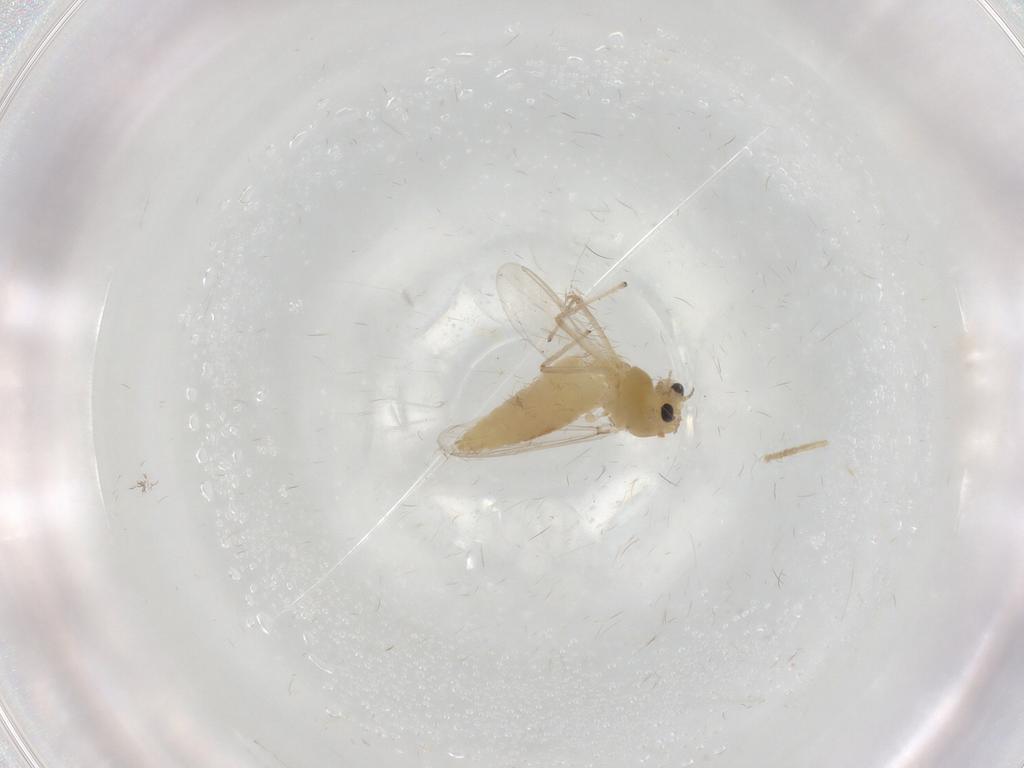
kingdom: Animalia
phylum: Arthropoda
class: Insecta
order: Diptera
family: Chironomidae
